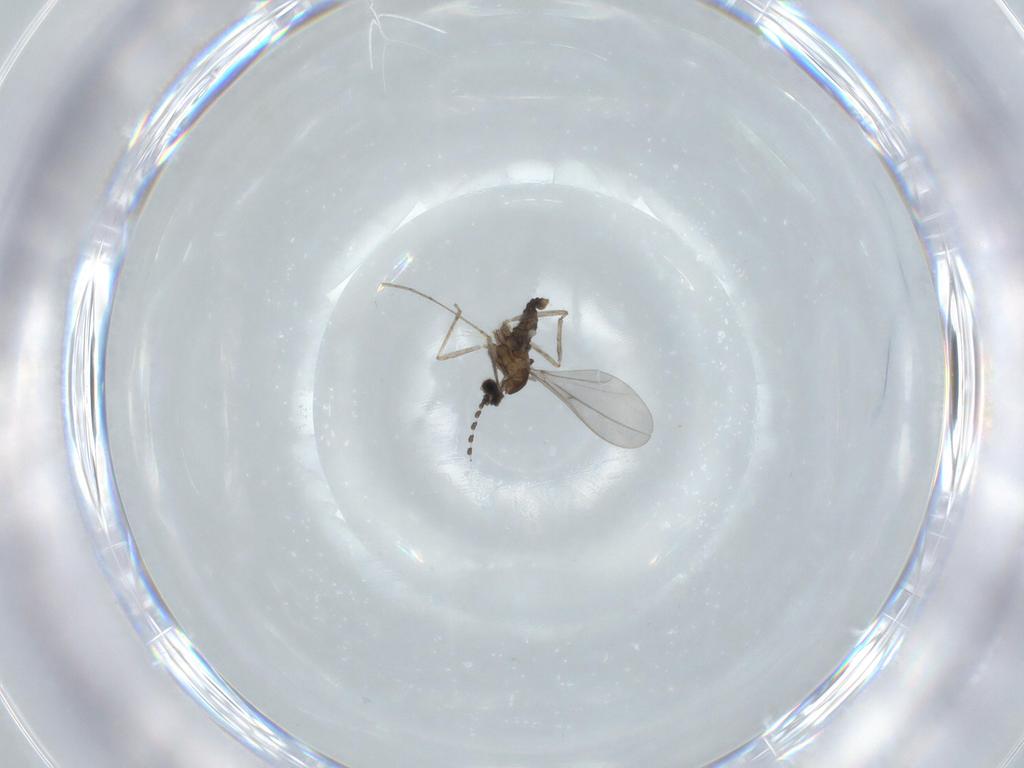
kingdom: Animalia
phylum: Arthropoda
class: Insecta
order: Diptera
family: Cecidomyiidae
